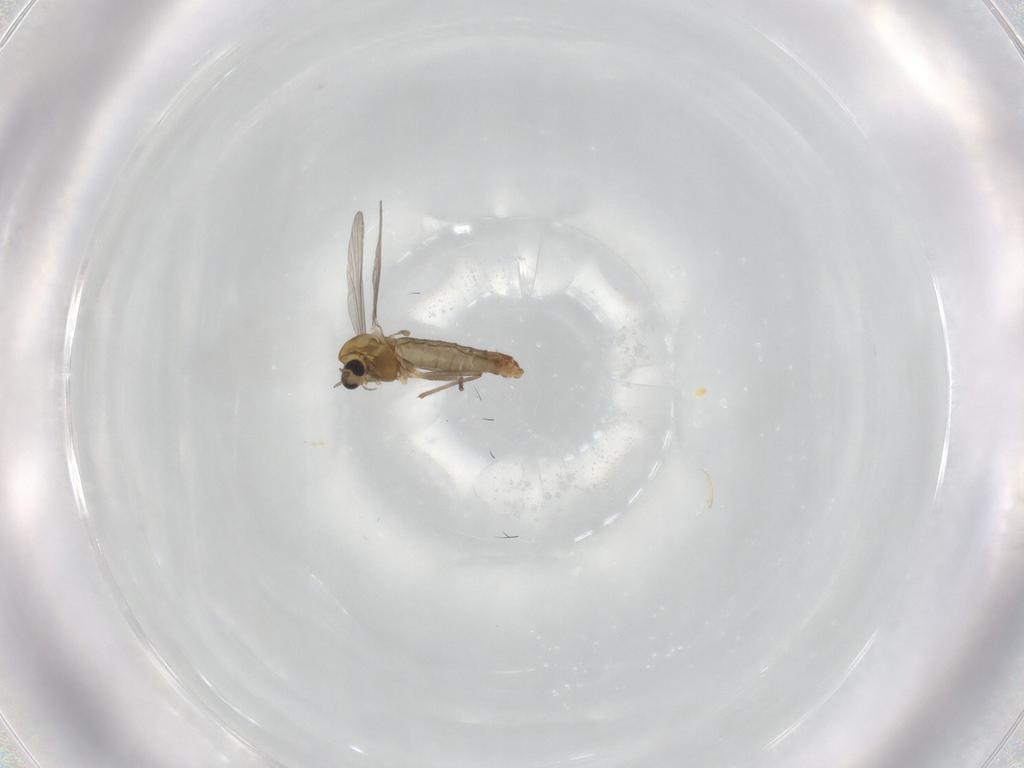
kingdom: Animalia
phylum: Arthropoda
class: Insecta
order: Diptera
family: Chironomidae
